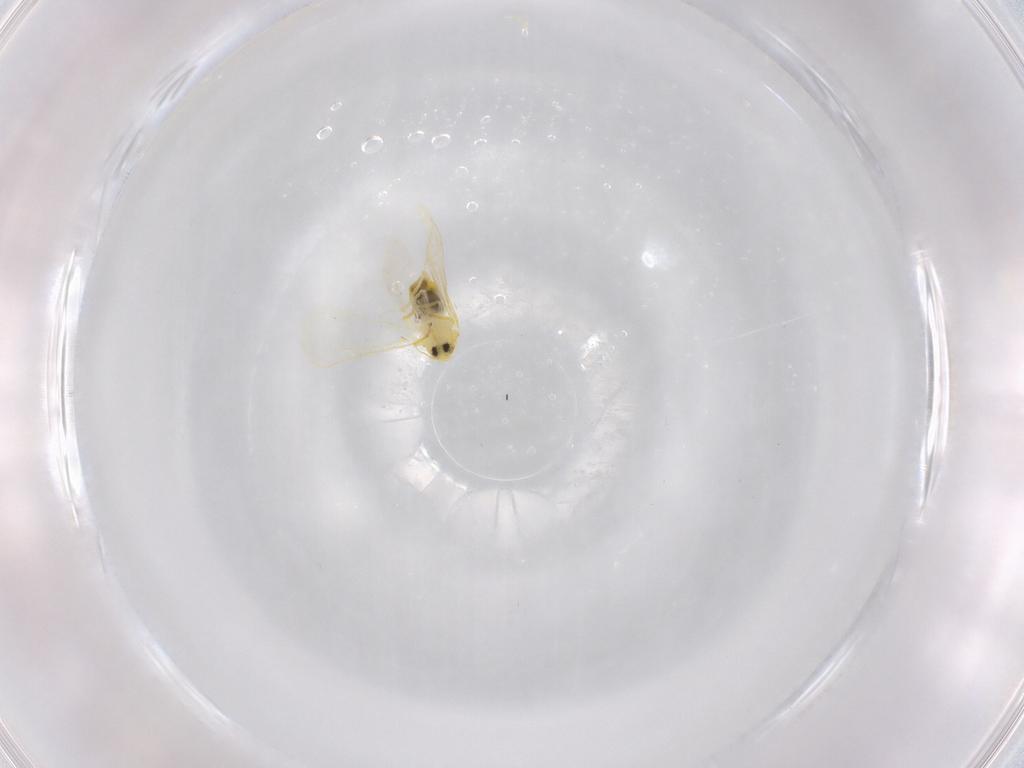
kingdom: Animalia
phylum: Arthropoda
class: Insecta
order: Hemiptera
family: Aleyrodidae
